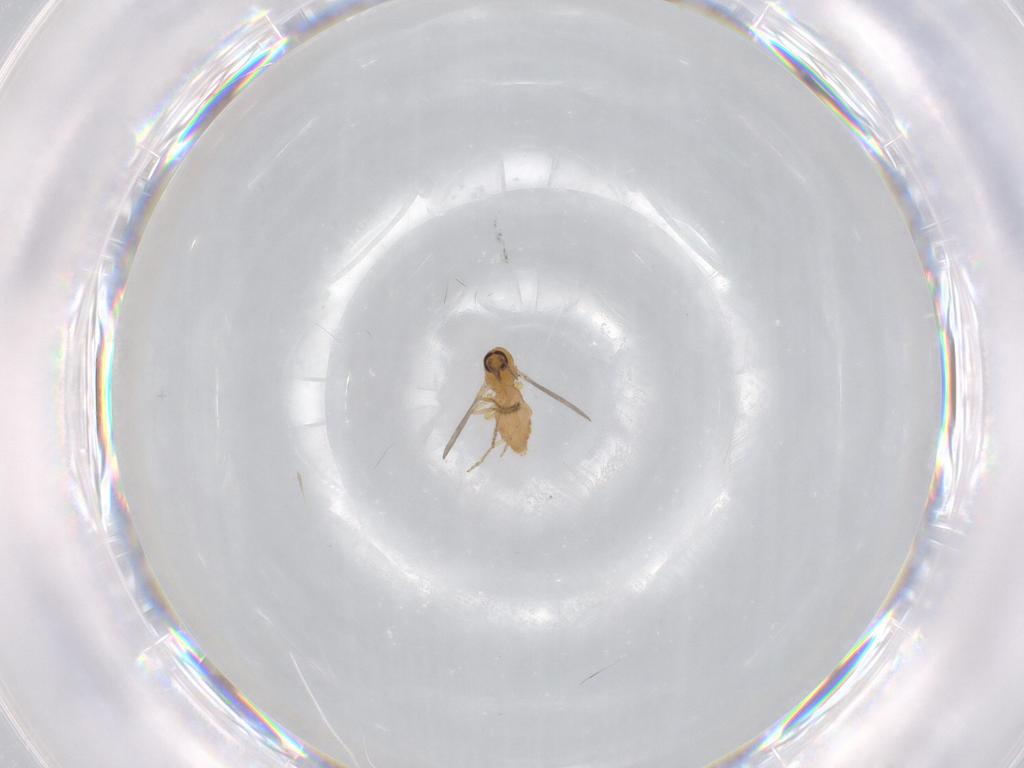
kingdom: Animalia
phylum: Arthropoda
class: Insecta
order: Diptera
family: Ceratopogonidae
